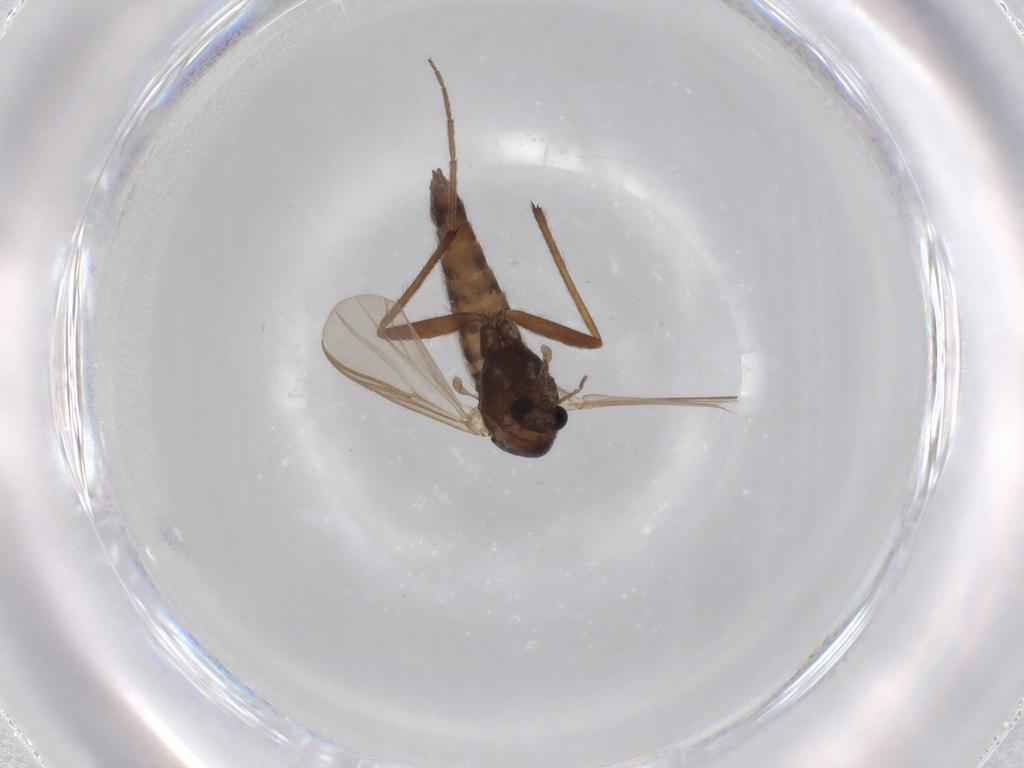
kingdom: Animalia
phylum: Arthropoda
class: Insecta
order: Diptera
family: Chironomidae
